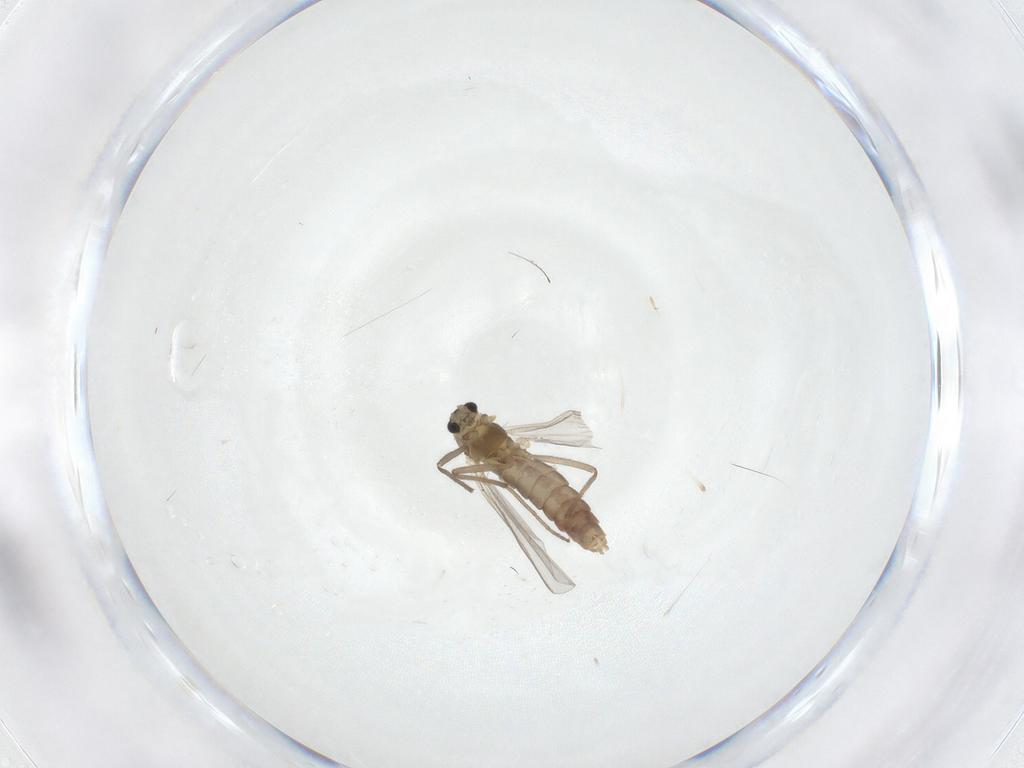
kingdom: Animalia
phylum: Arthropoda
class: Insecta
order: Diptera
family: Chironomidae
